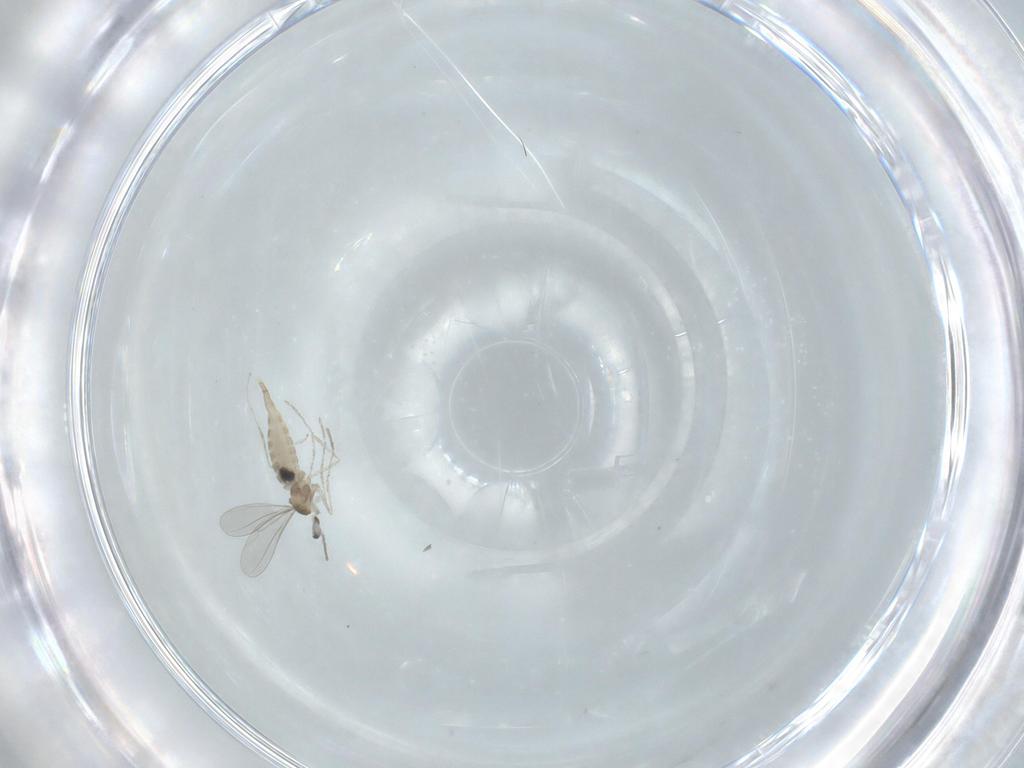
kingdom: Animalia
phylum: Arthropoda
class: Insecta
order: Diptera
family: Cecidomyiidae
